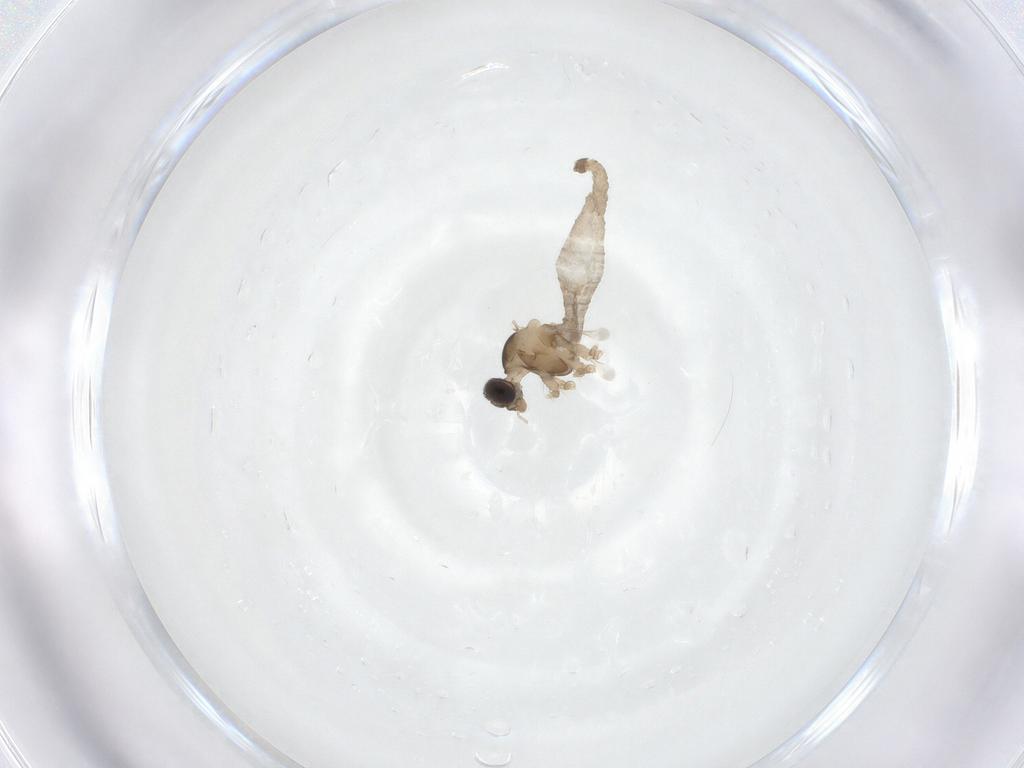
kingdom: Animalia
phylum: Arthropoda
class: Insecta
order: Diptera
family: Cecidomyiidae
